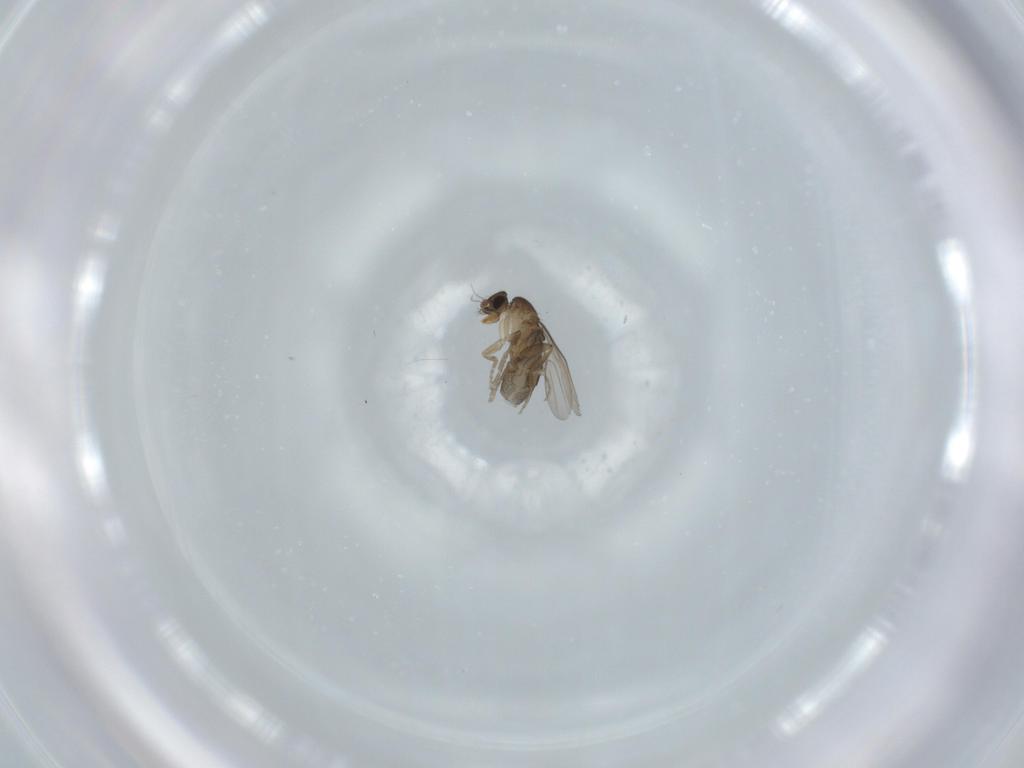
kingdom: Animalia
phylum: Arthropoda
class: Insecta
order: Diptera
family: Phoridae
